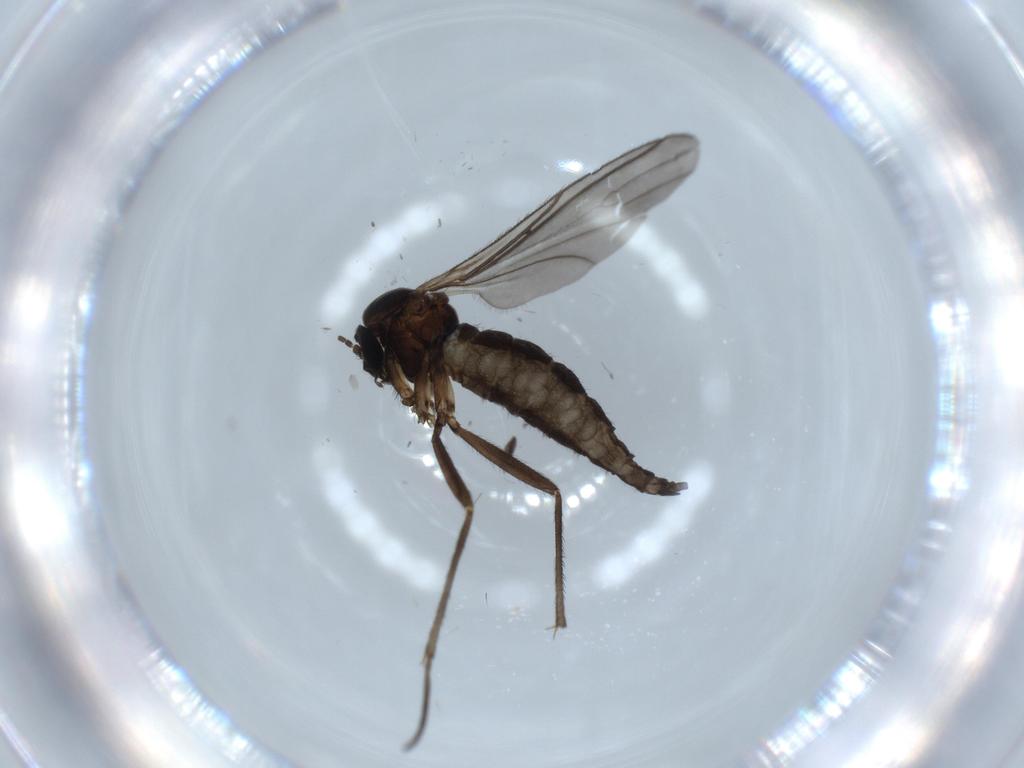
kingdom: Animalia
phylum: Arthropoda
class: Insecta
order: Diptera
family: Sciaridae
